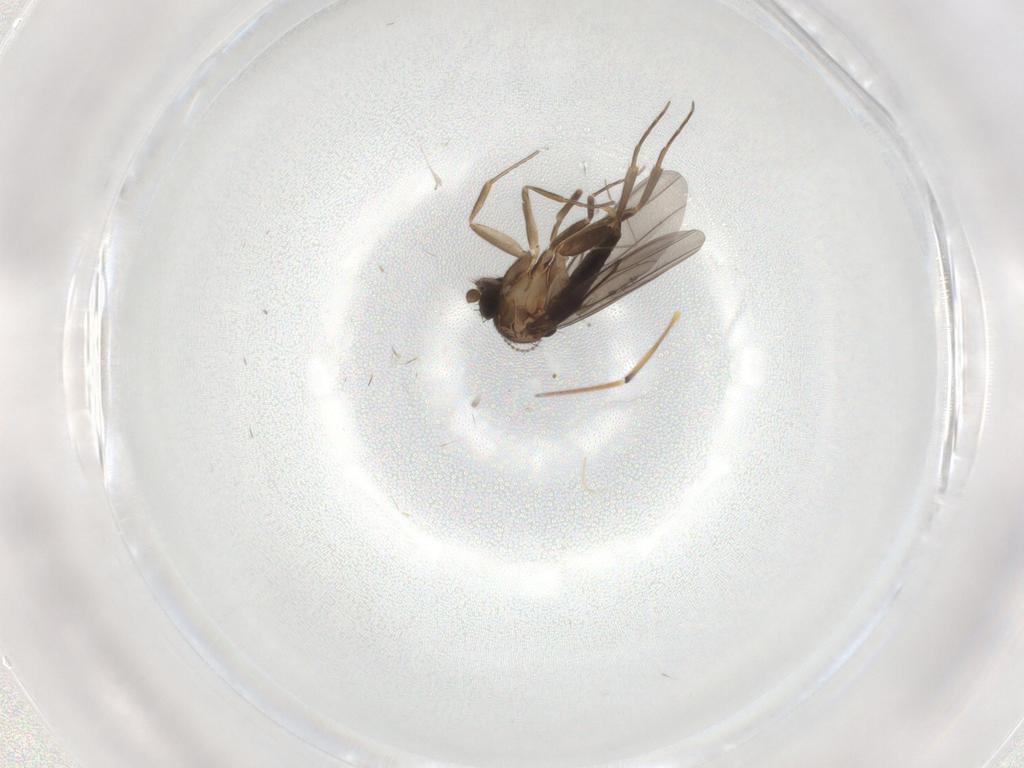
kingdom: Animalia
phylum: Arthropoda
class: Insecta
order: Diptera
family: Cecidomyiidae
